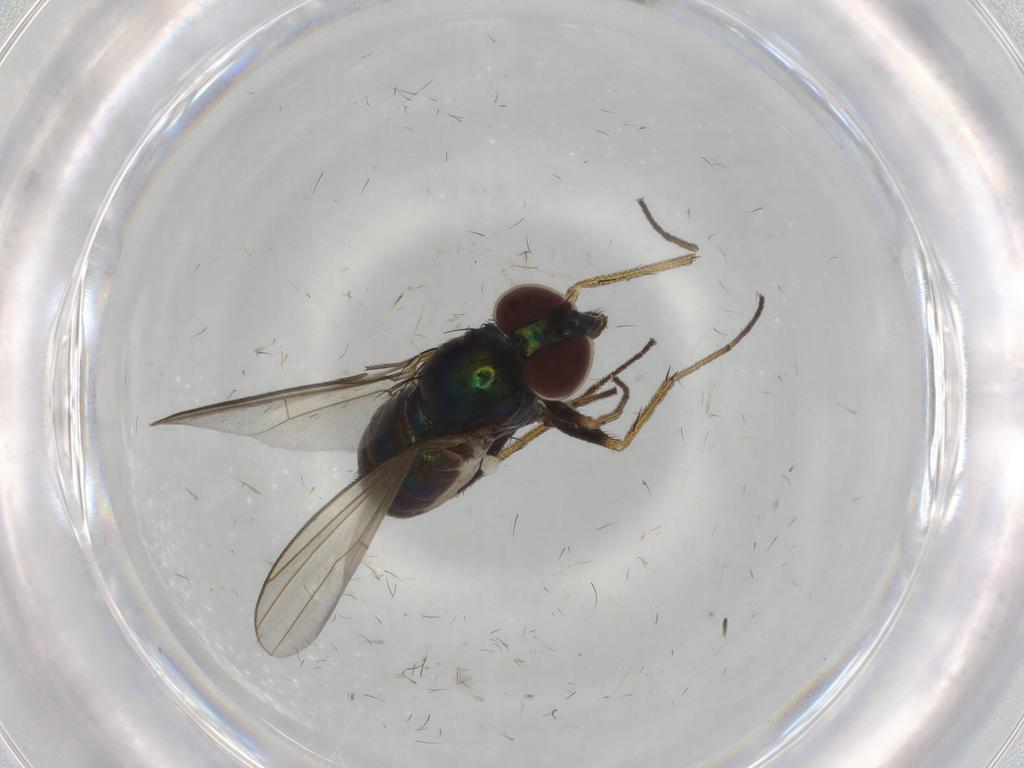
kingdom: Animalia
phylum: Arthropoda
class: Insecta
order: Diptera
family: Dolichopodidae
